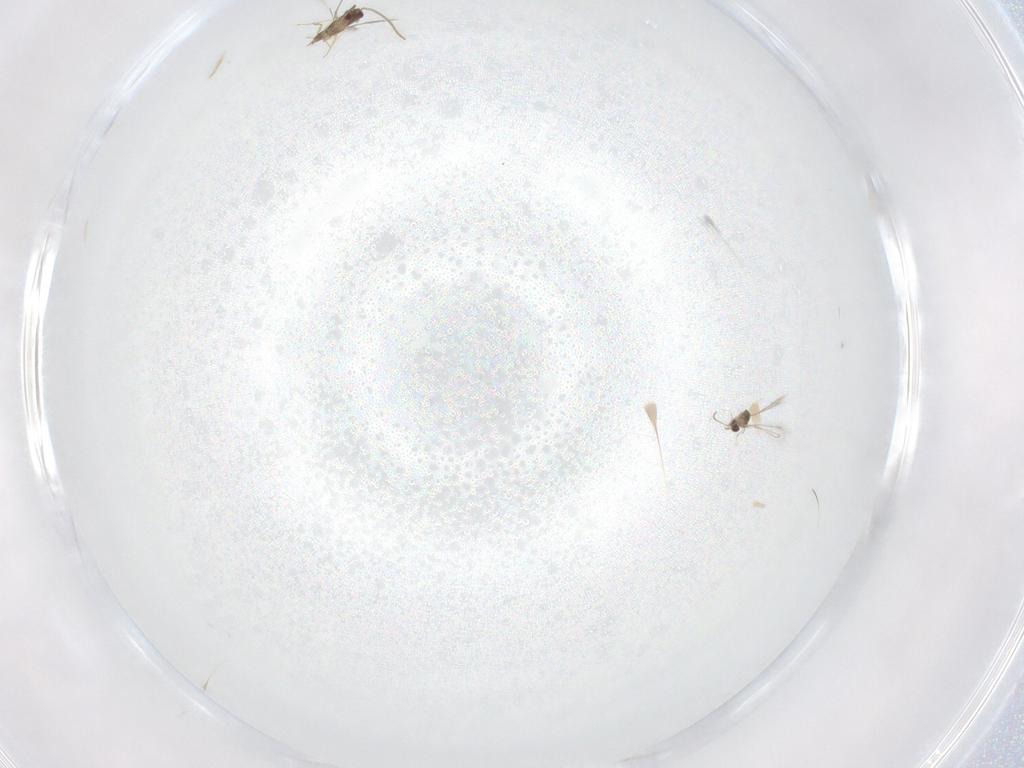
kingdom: Animalia
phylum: Arthropoda
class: Insecta
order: Hymenoptera
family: Mymaridae
